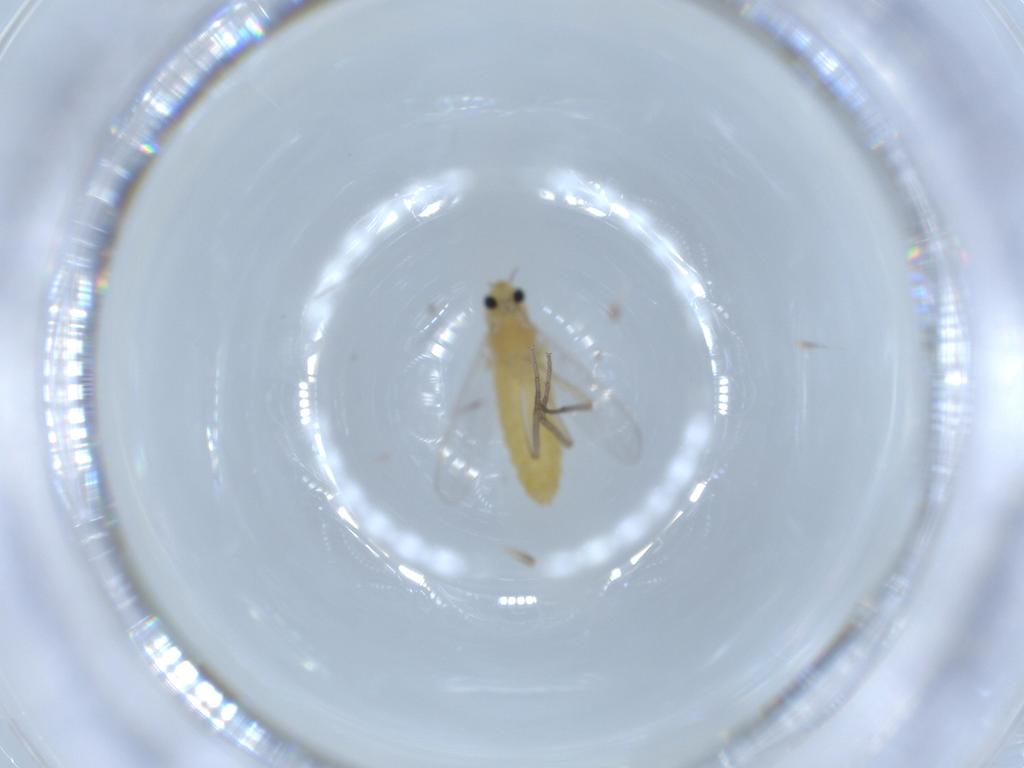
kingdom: Animalia
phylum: Arthropoda
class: Insecta
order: Diptera
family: Chironomidae
